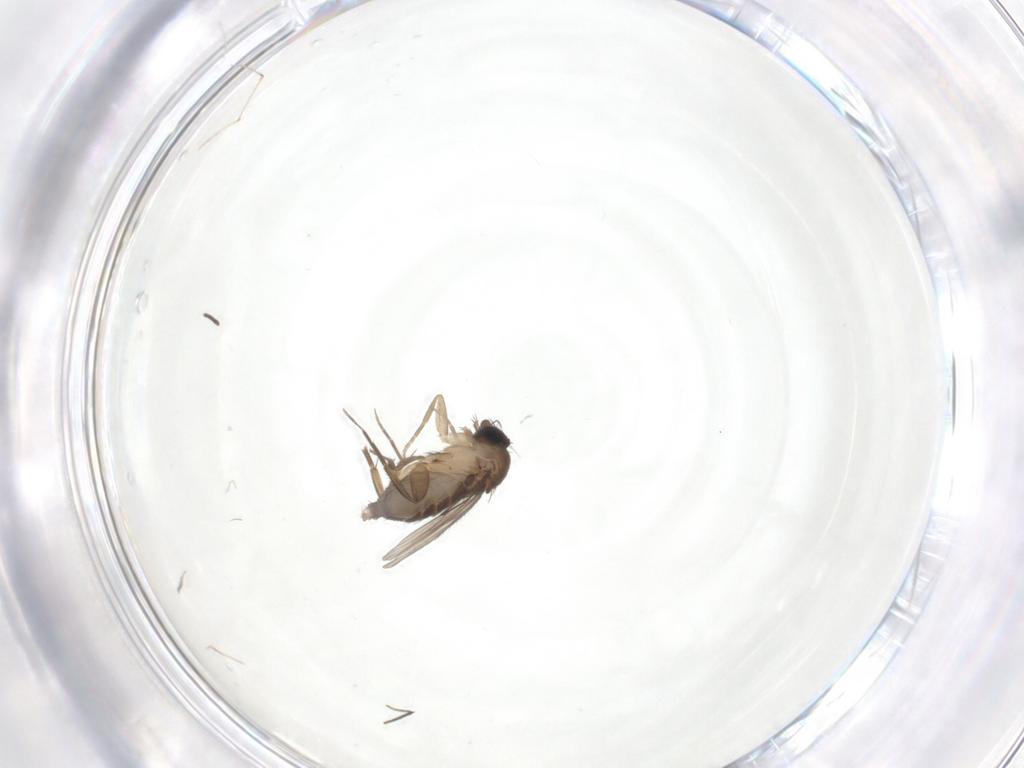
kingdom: Animalia
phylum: Arthropoda
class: Insecta
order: Diptera
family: Phoridae
